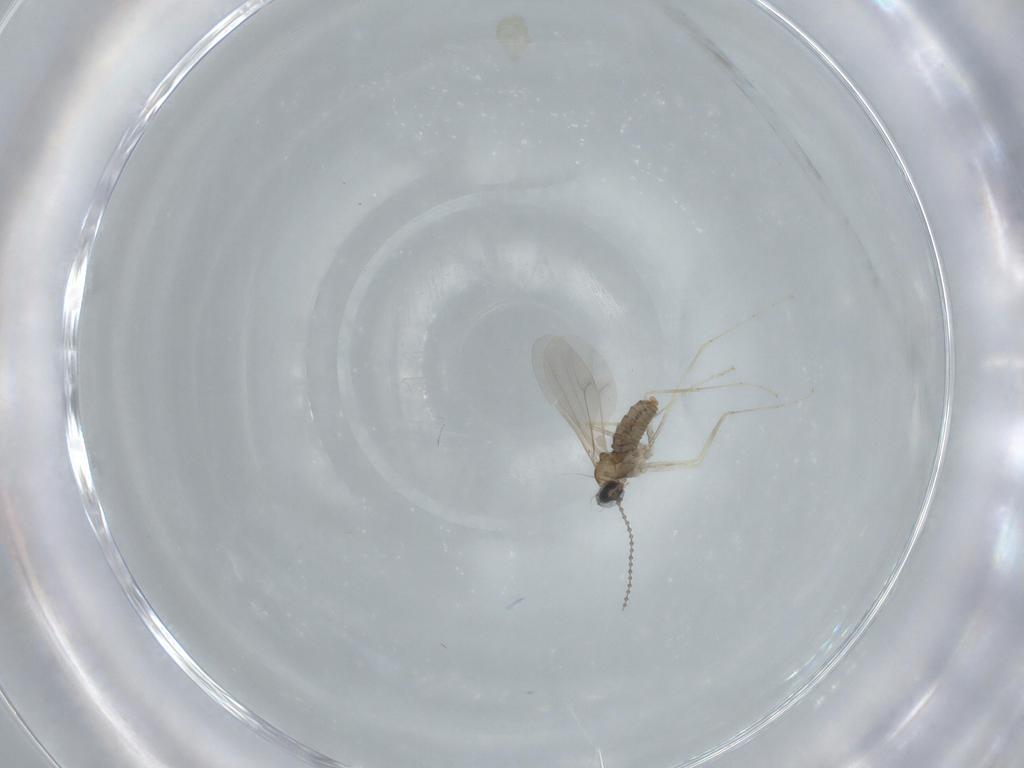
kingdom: Animalia
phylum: Arthropoda
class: Insecta
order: Diptera
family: Cecidomyiidae
